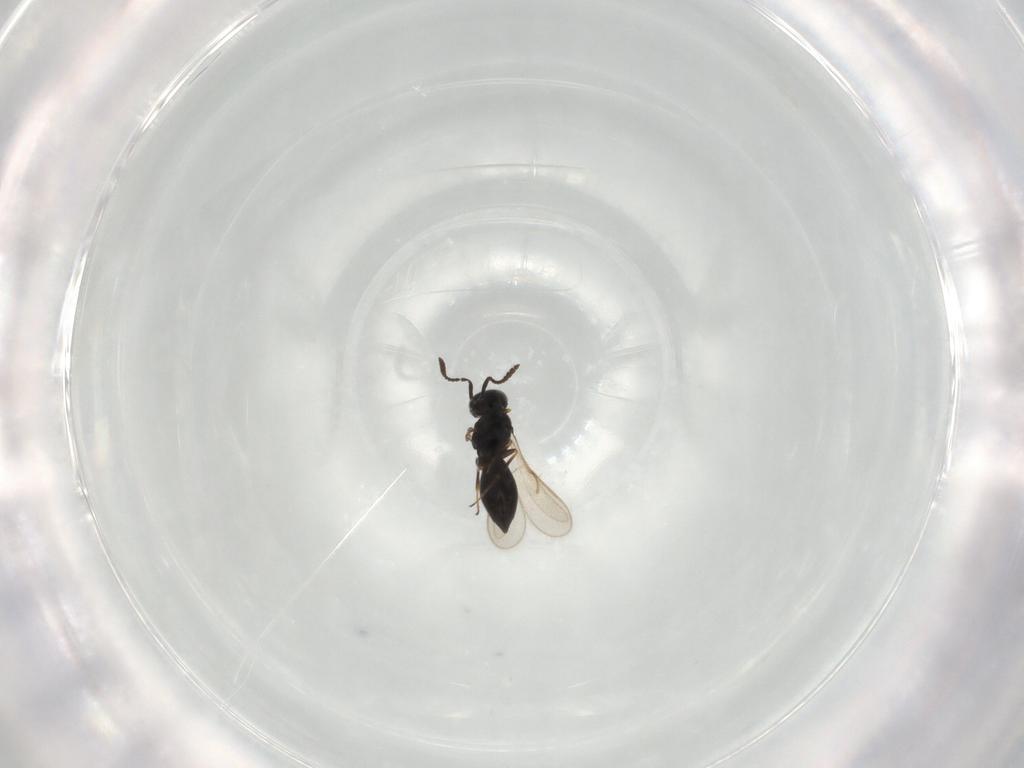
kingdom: Animalia
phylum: Arthropoda
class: Insecta
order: Hymenoptera
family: Scelionidae
